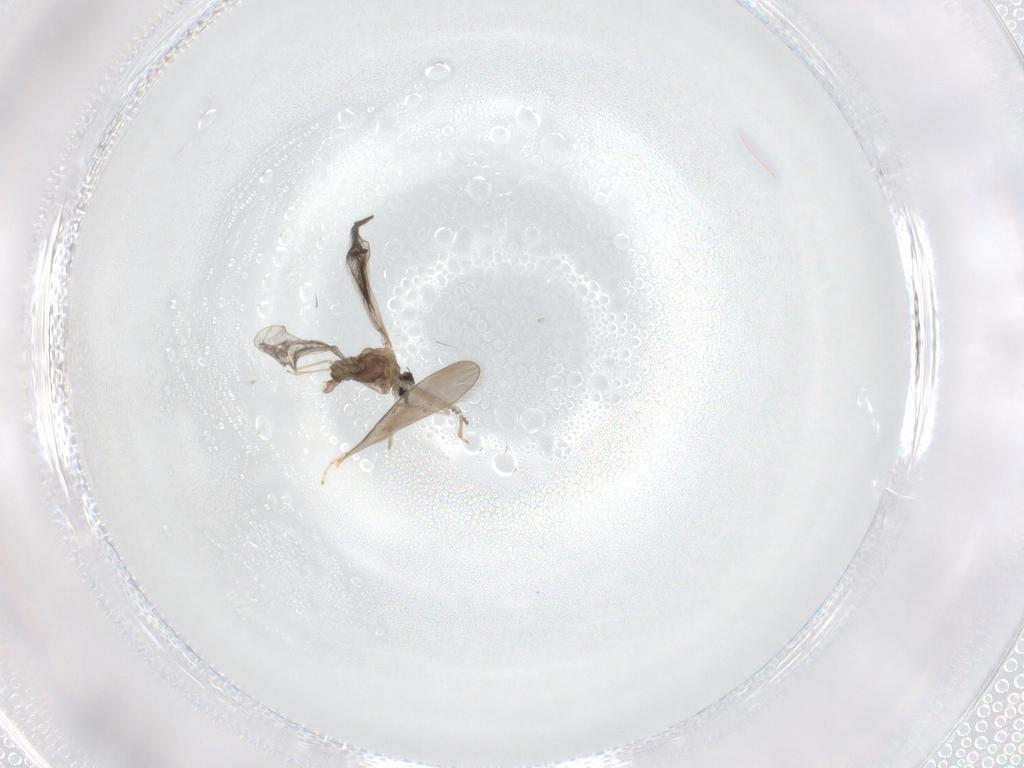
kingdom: Animalia
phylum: Arthropoda
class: Insecta
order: Diptera
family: Cecidomyiidae
